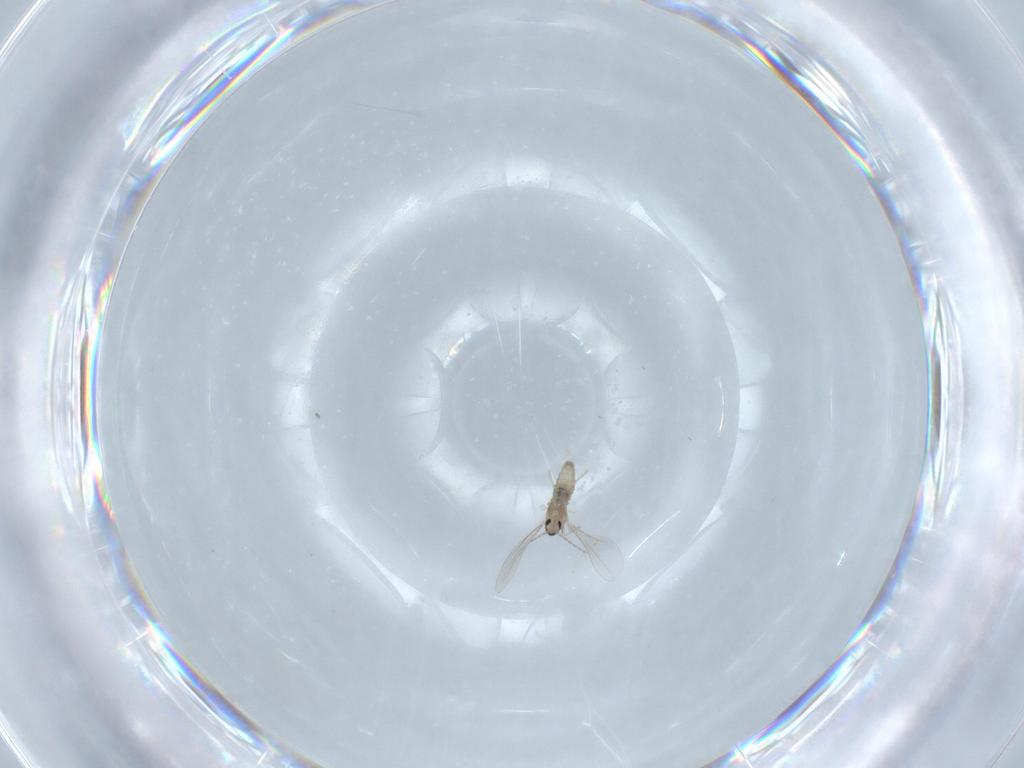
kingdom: Animalia
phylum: Arthropoda
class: Insecta
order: Diptera
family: Cecidomyiidae
